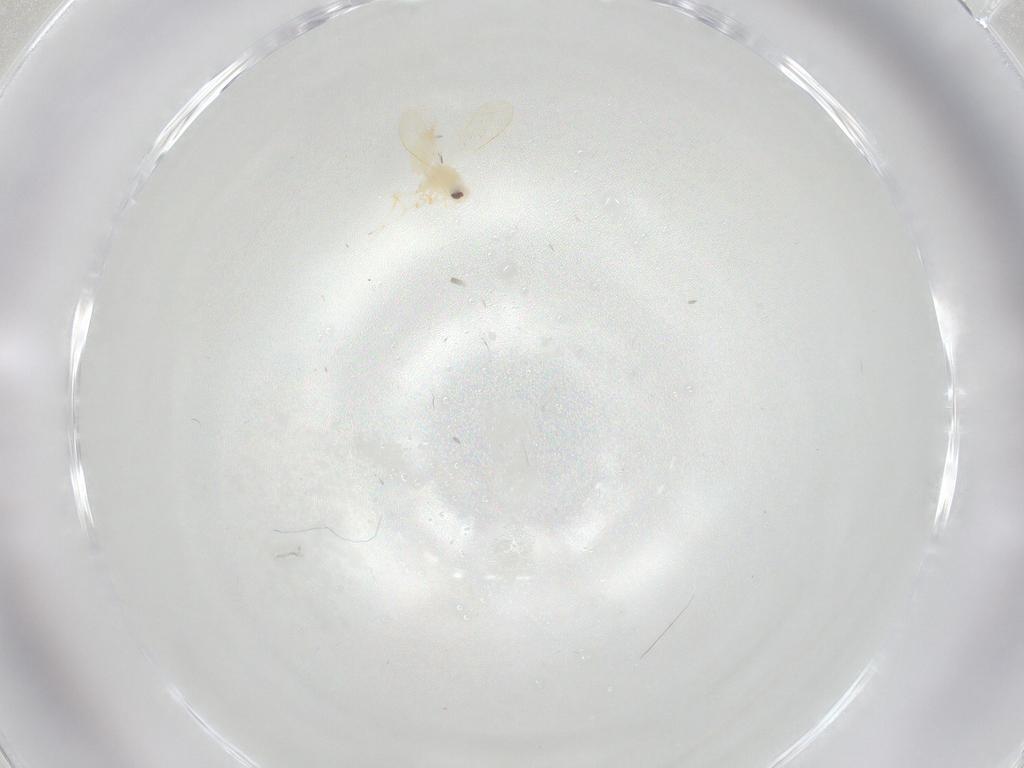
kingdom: Animalia
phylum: Arthropoda
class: Insecta
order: Hemiptera
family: Aleyrodidae
